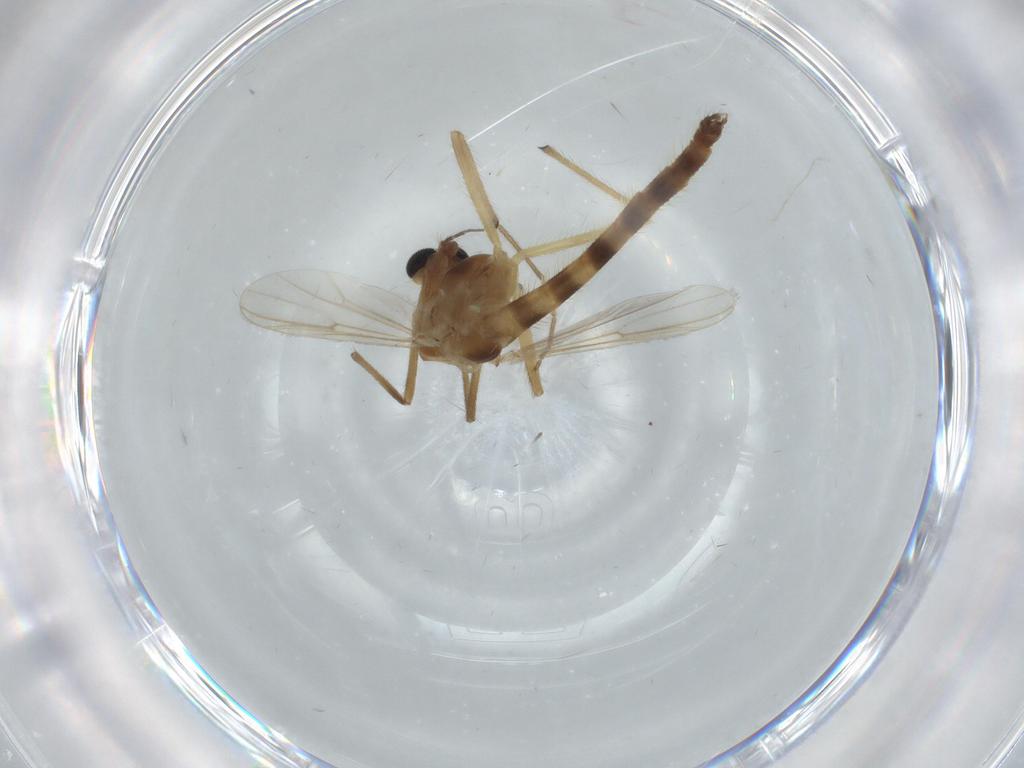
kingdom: Animalia
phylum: Arthropoda
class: Insecta
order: Diptera
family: Chironomidae
